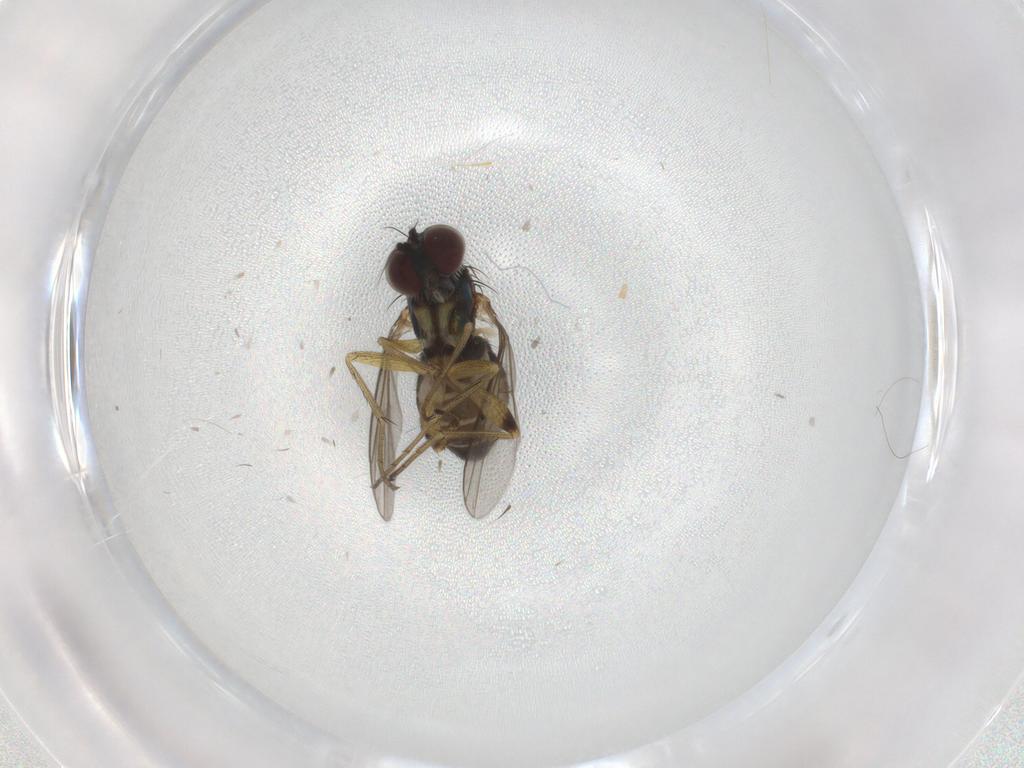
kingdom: Animalia
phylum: Arthropoda
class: Insecta
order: Diptera
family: Ceratopogonidae
